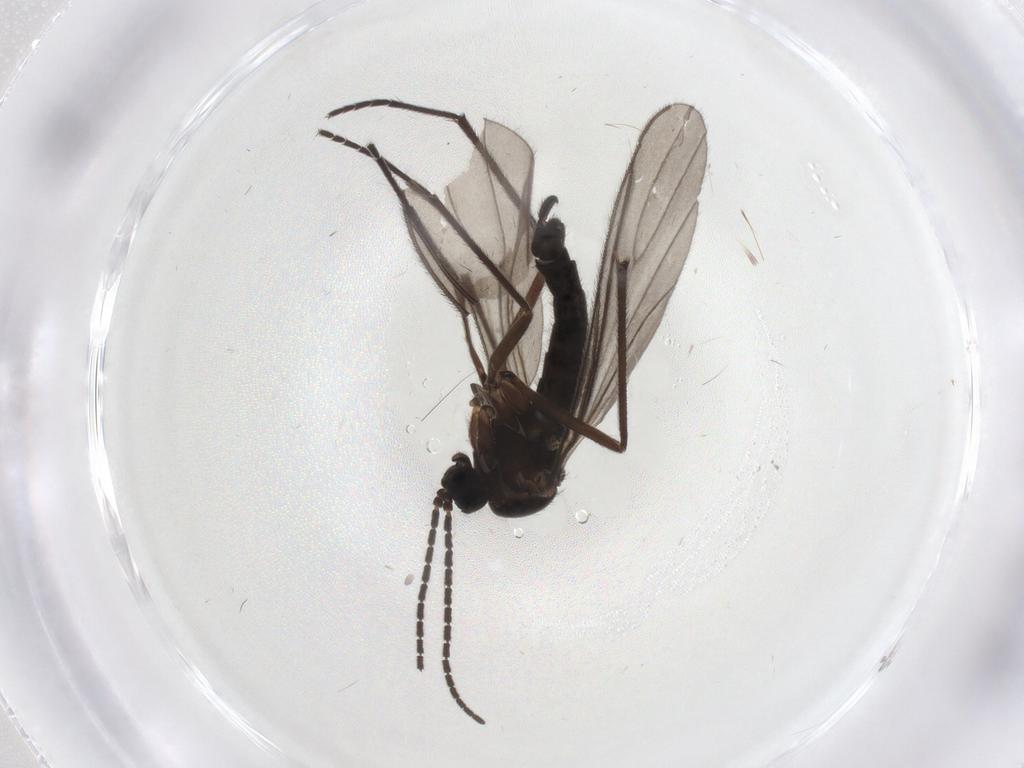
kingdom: Animalia
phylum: Arthropoda
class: Insecta
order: Diptera
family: Sciaridae
